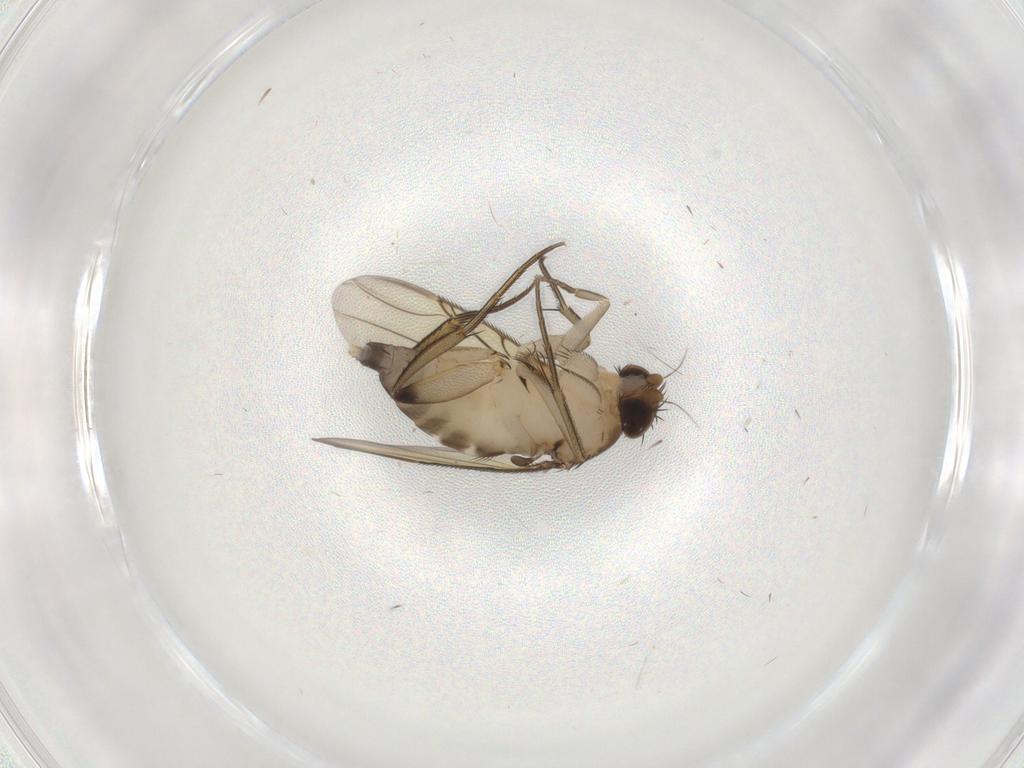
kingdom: Animalia
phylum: Arthropoda
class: Insecta
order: Diptera
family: Phoridae
